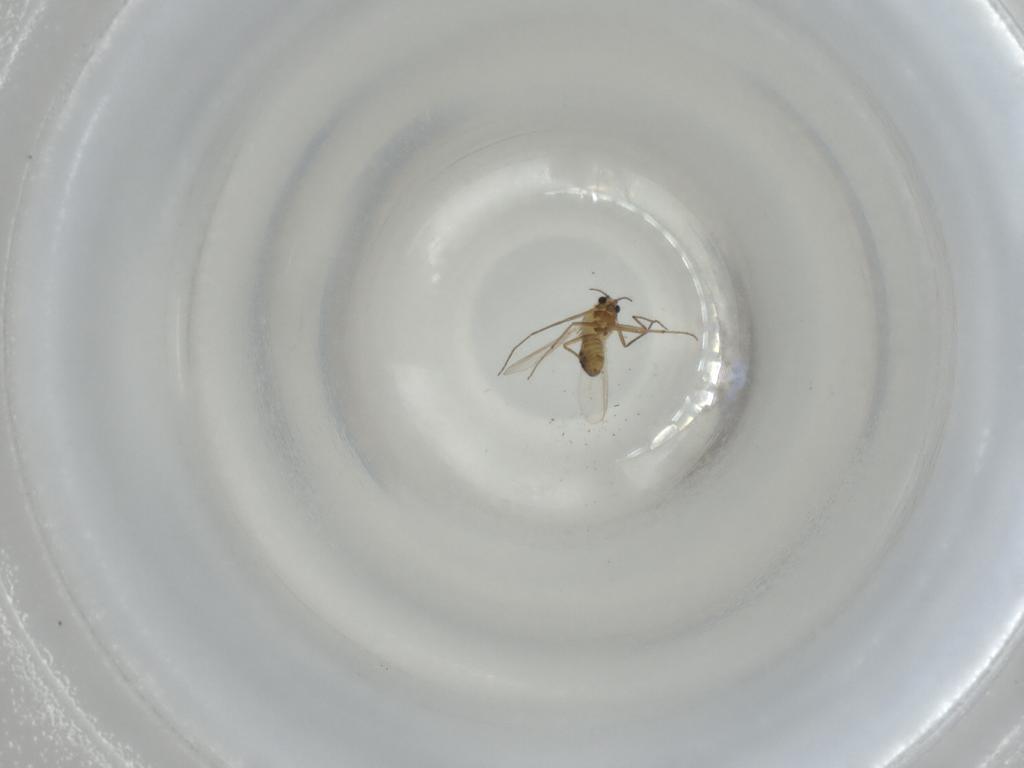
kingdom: Animalia
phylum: Arthropoda
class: Insecta
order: Diptera
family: Chironomidae
